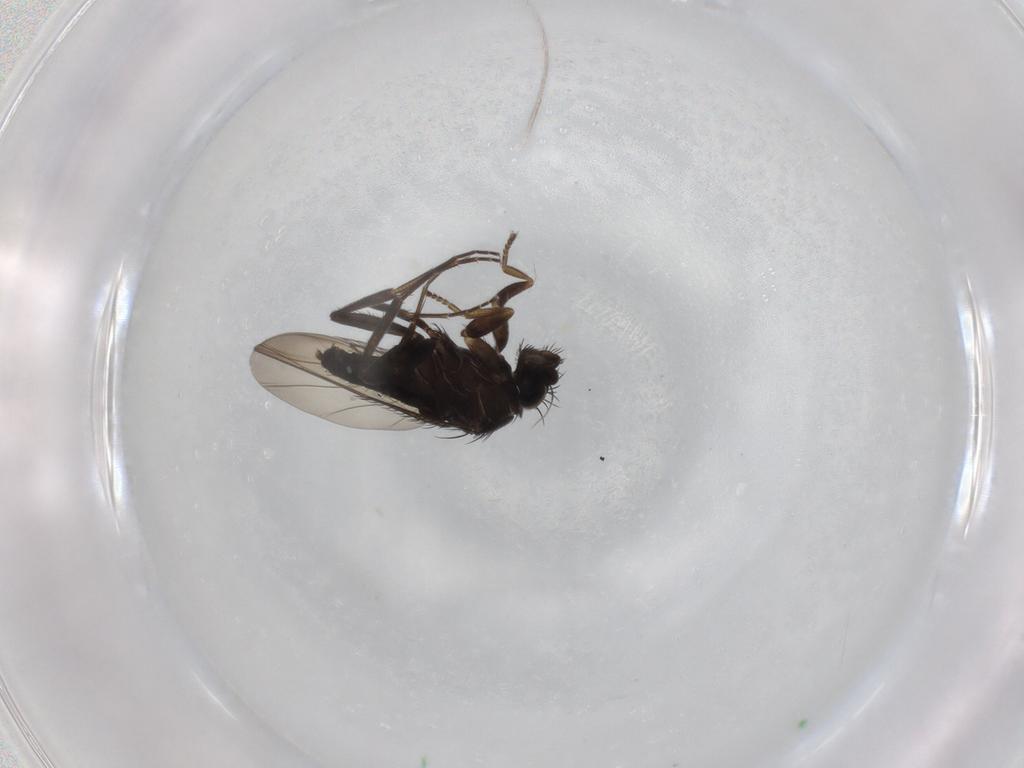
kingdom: Animalia
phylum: Arthropoda
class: Insecta
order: Diptera
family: Phoridae
